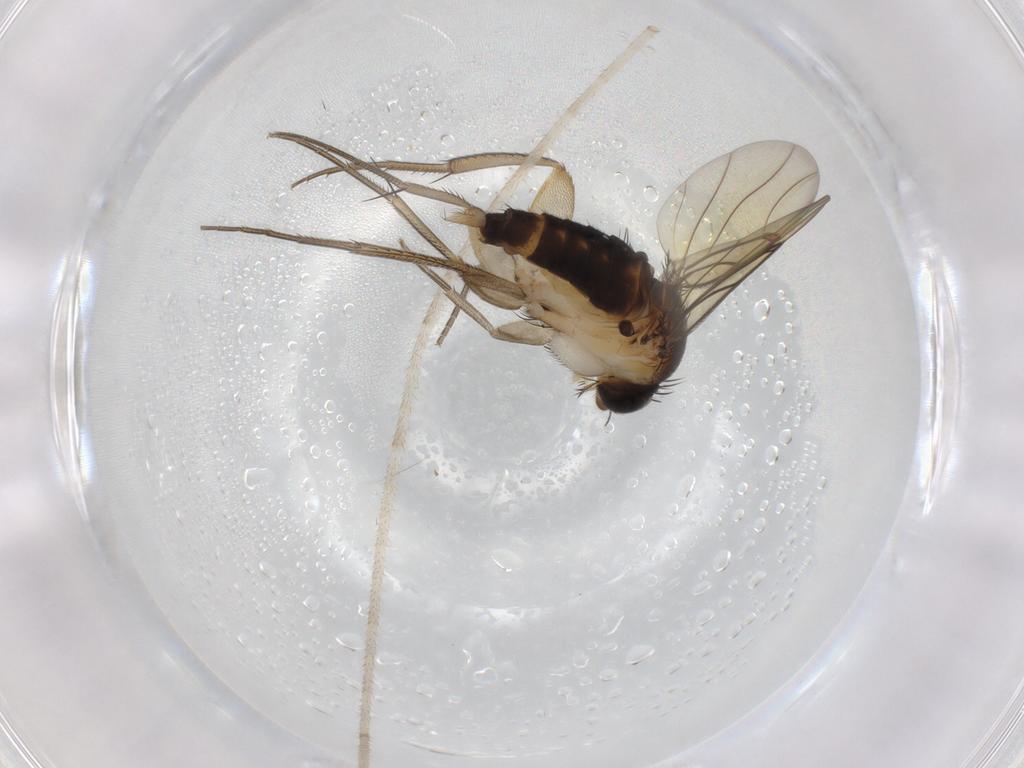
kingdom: Animalia
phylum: Arthropoda
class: Insecta
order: Diptera
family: Phoridae
